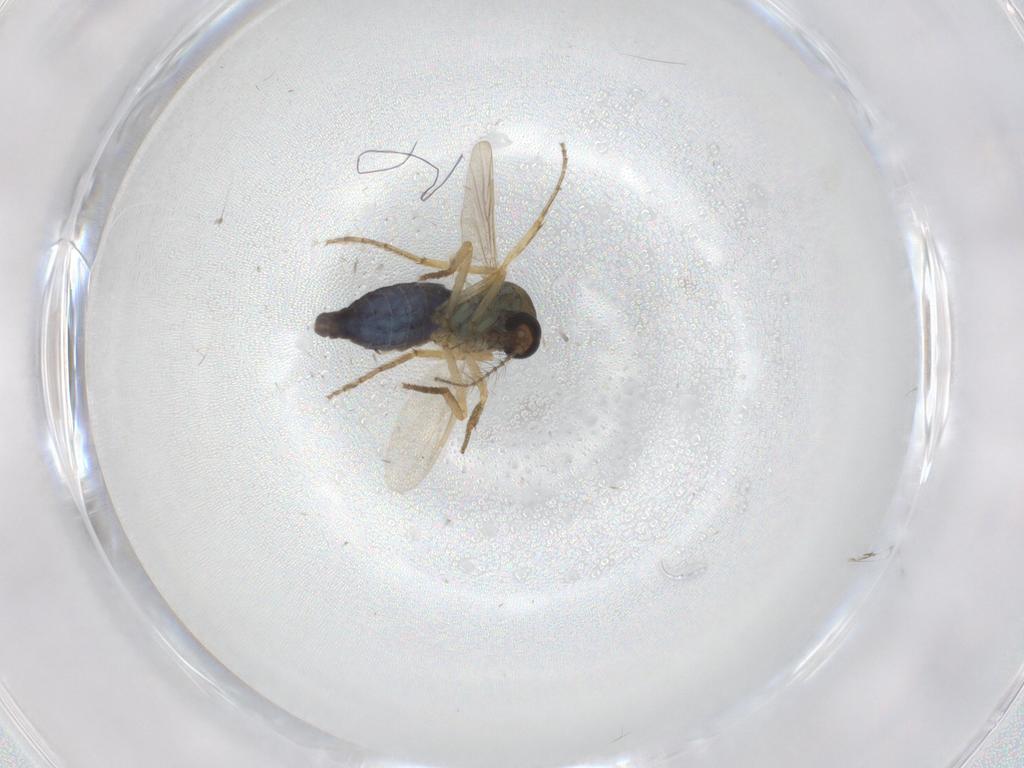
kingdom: Animalia
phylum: Arthropoda
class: Insecta
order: Diptera
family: Ceratopogonidae
